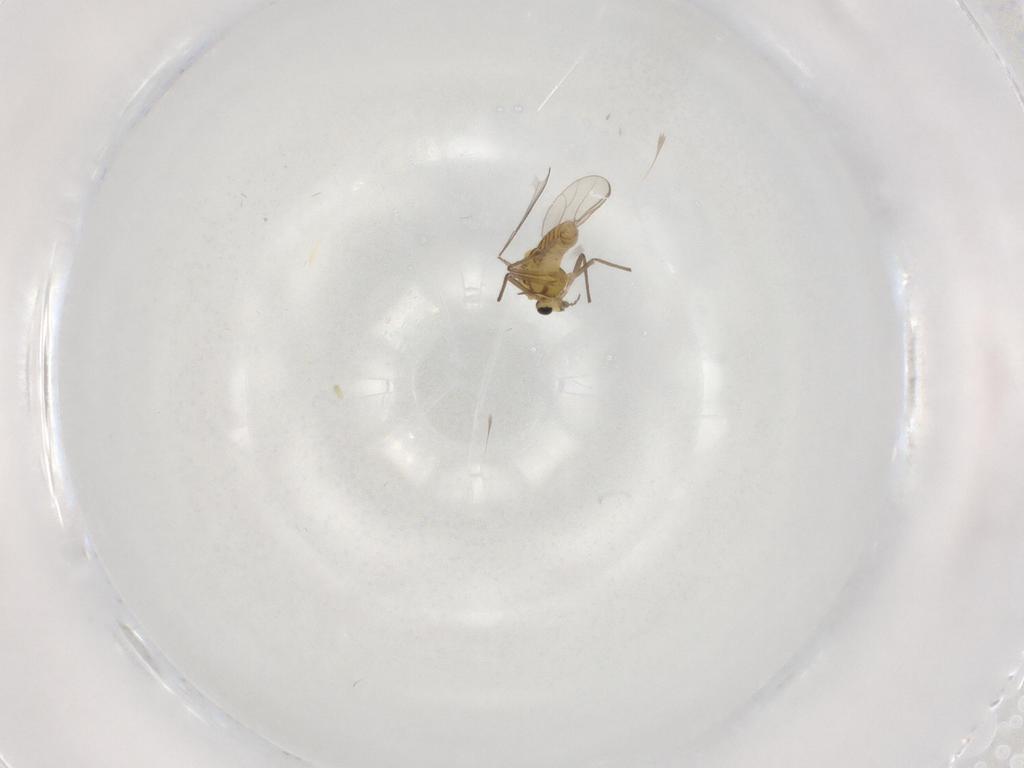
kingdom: Animalia
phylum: Arthropoda
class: Insecta
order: Diptera
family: Chironomidae
